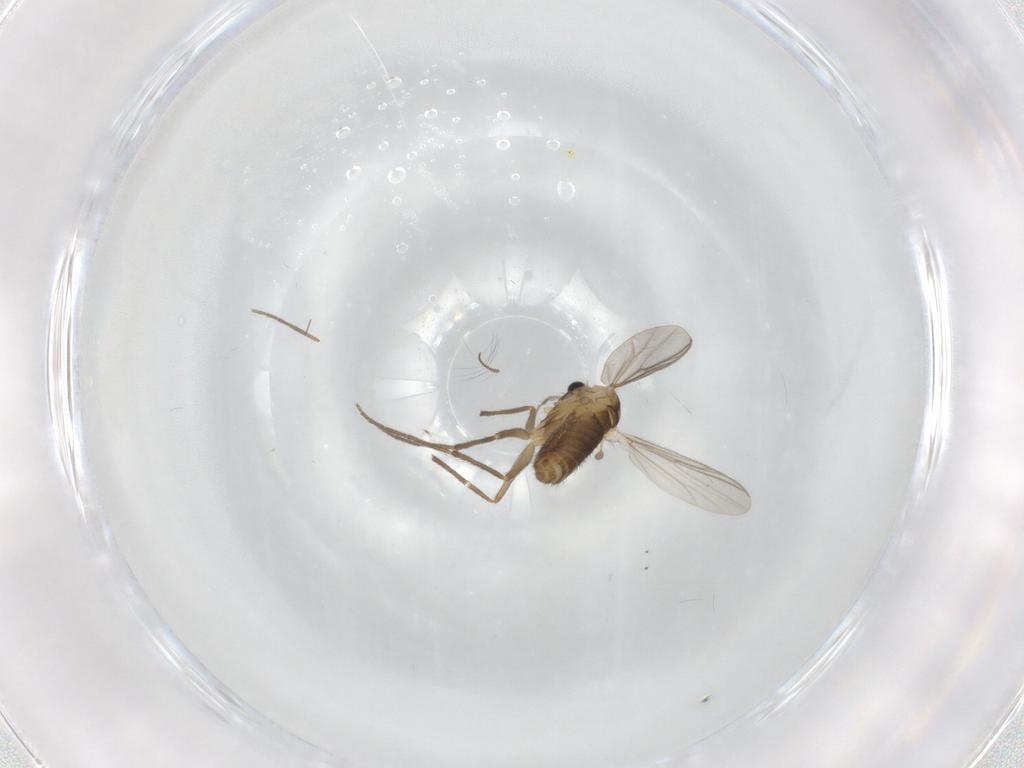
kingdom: Animalia
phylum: Arthropoda
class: Insecta
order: Diptera
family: Chironomidae
